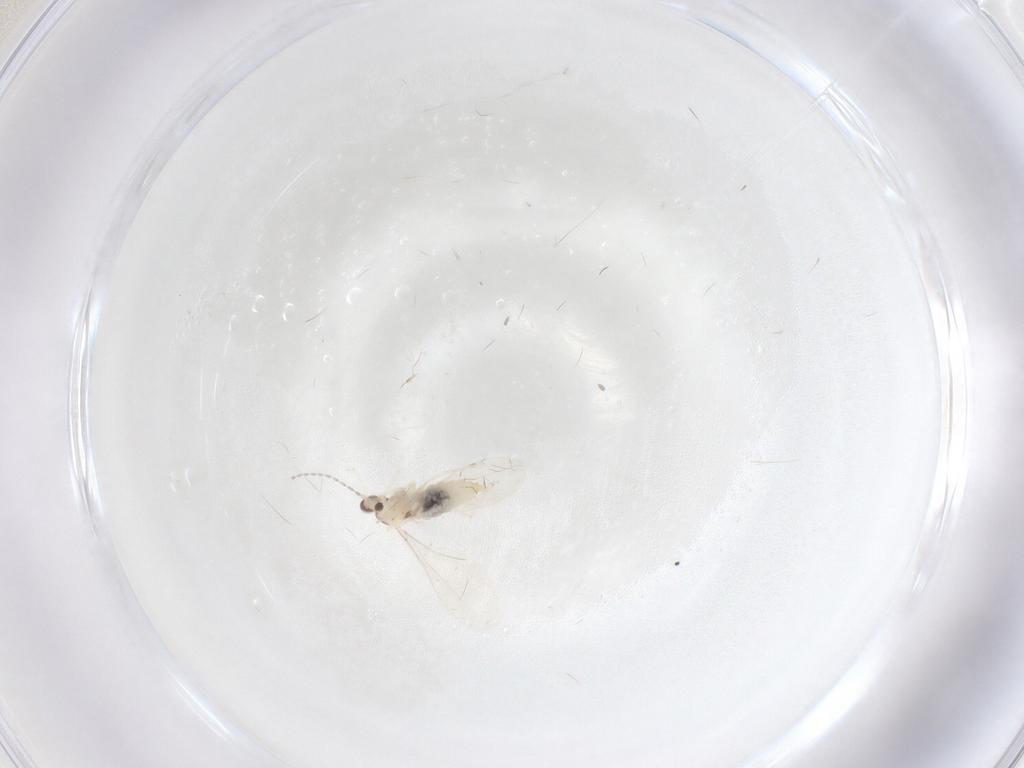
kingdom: Animalia
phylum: Arthropoda
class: Insecta
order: Diptera
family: Cecidomyiidae
